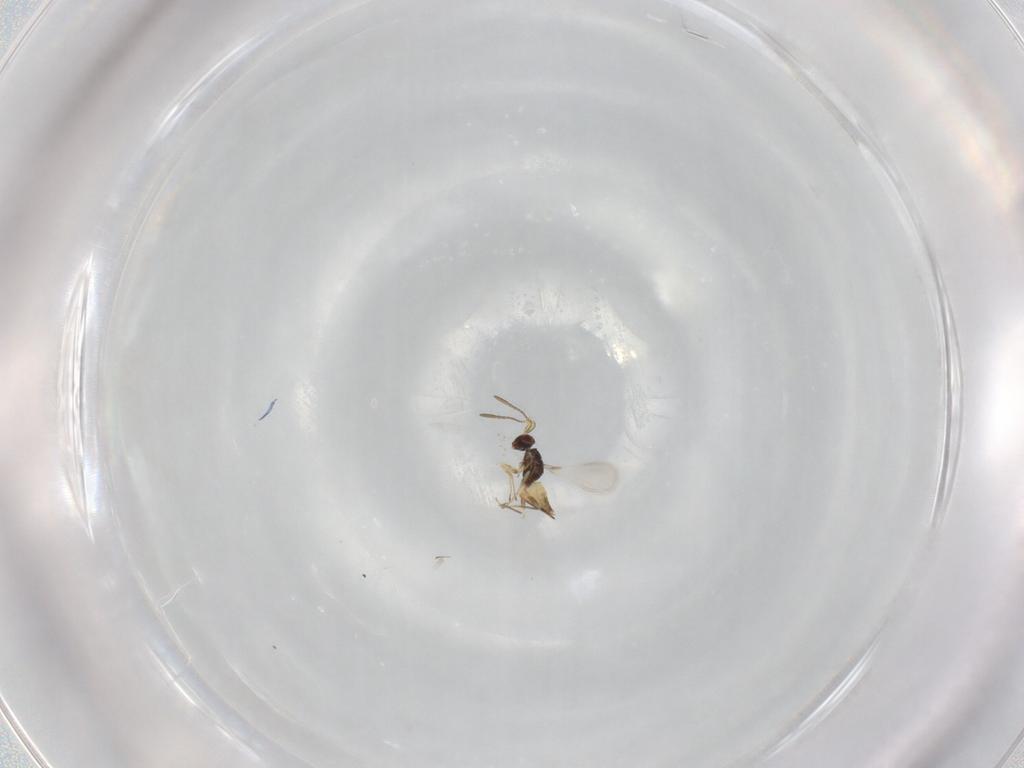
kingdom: Animalia
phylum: Arthropoda
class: Insecta
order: Hymenoptera
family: Mymaridae
